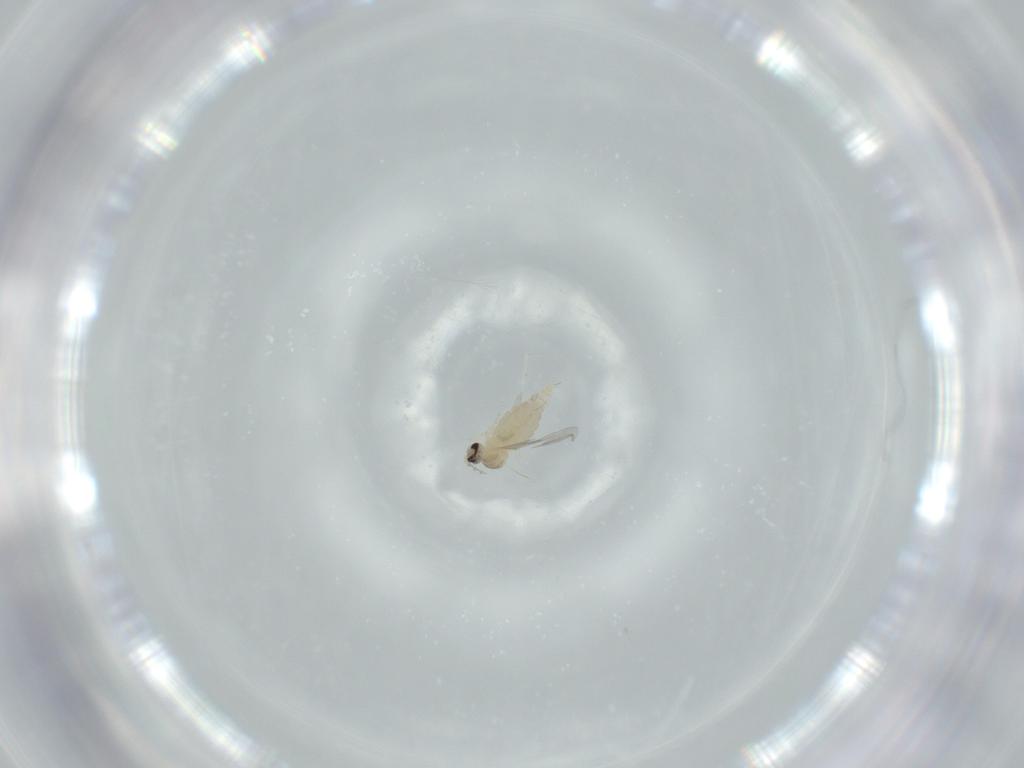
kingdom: Animalia
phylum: Arthropoda
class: Insecta
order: Diptera
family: Cecidomyiidae
